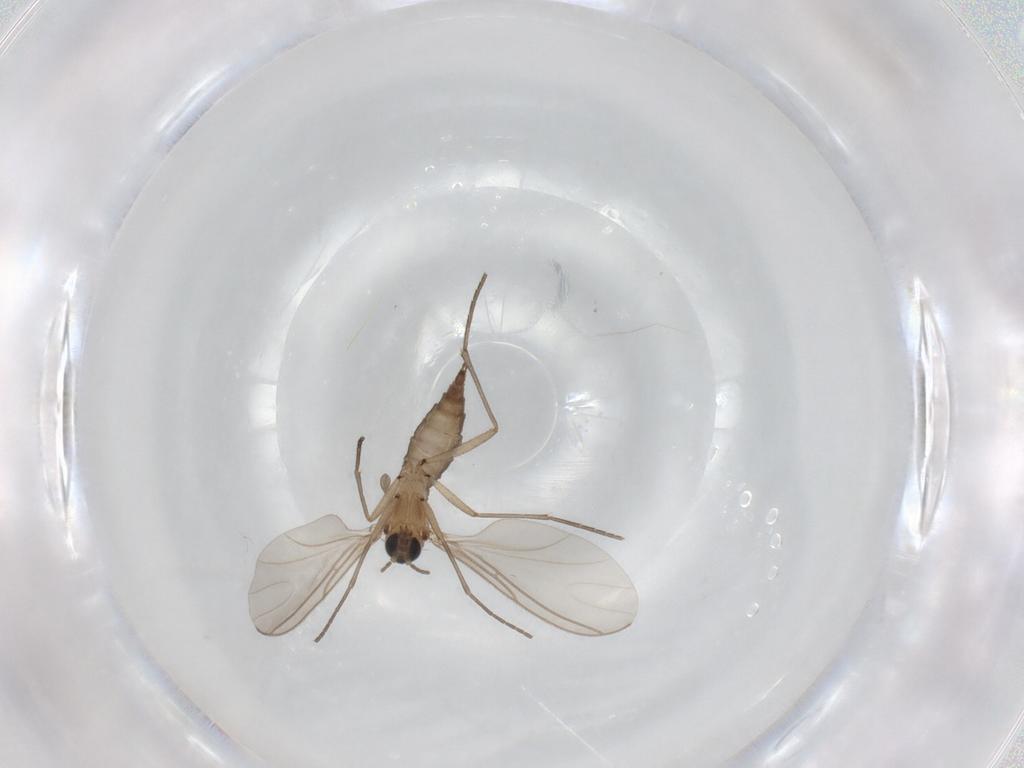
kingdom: Animalia
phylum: Arthropoda
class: Insecta
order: Diptera
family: Sciaridae
